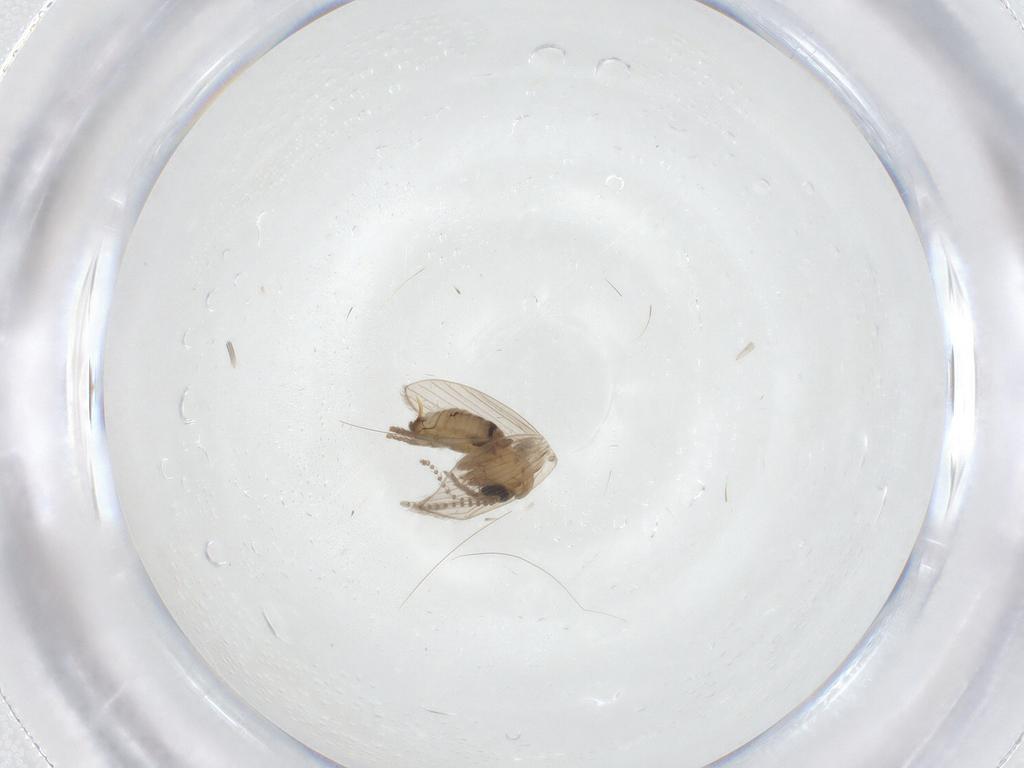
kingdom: Animalia
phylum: Arthropoda
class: Insecta
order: Diptera
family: Psychodidae
